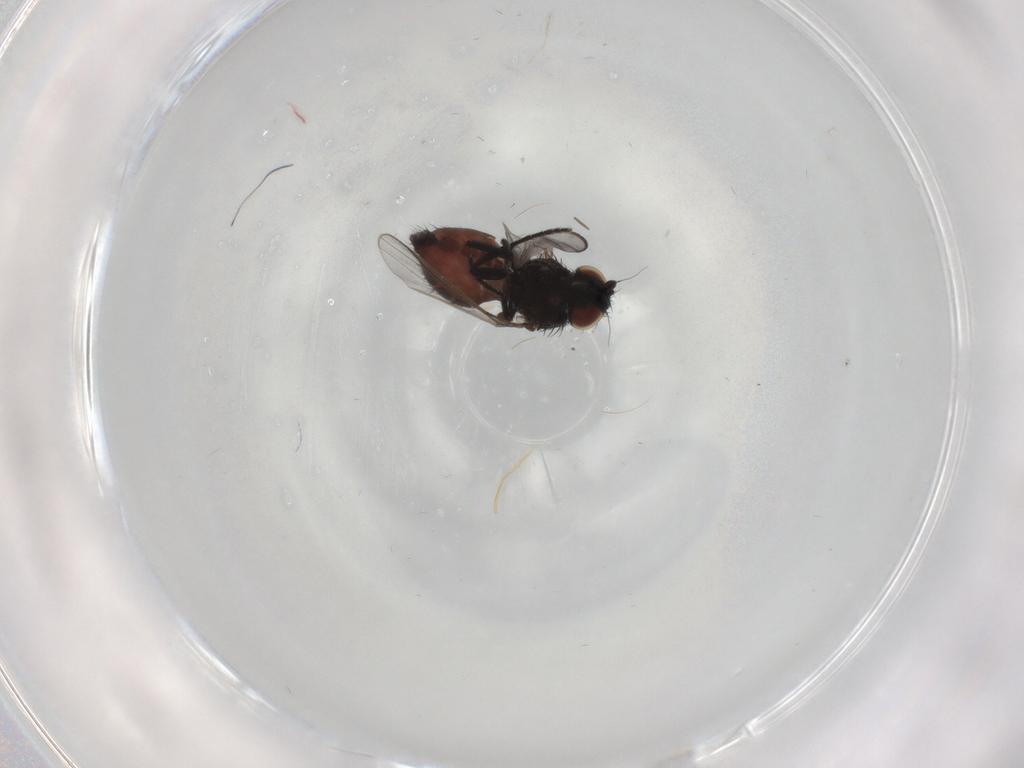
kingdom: Animalia
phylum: Arthropoda
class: Insecta
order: Diptera
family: Milichiidae
